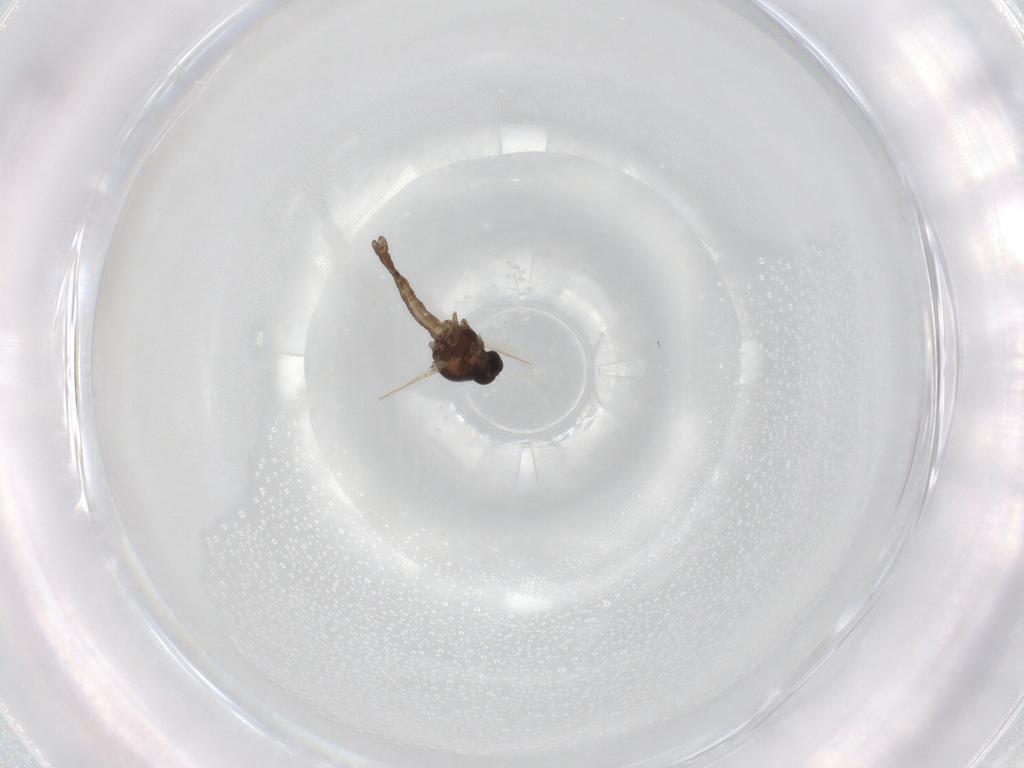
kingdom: Animalia
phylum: Arthropoda
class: Insecta
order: Diptera
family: Ceratopogonidae
